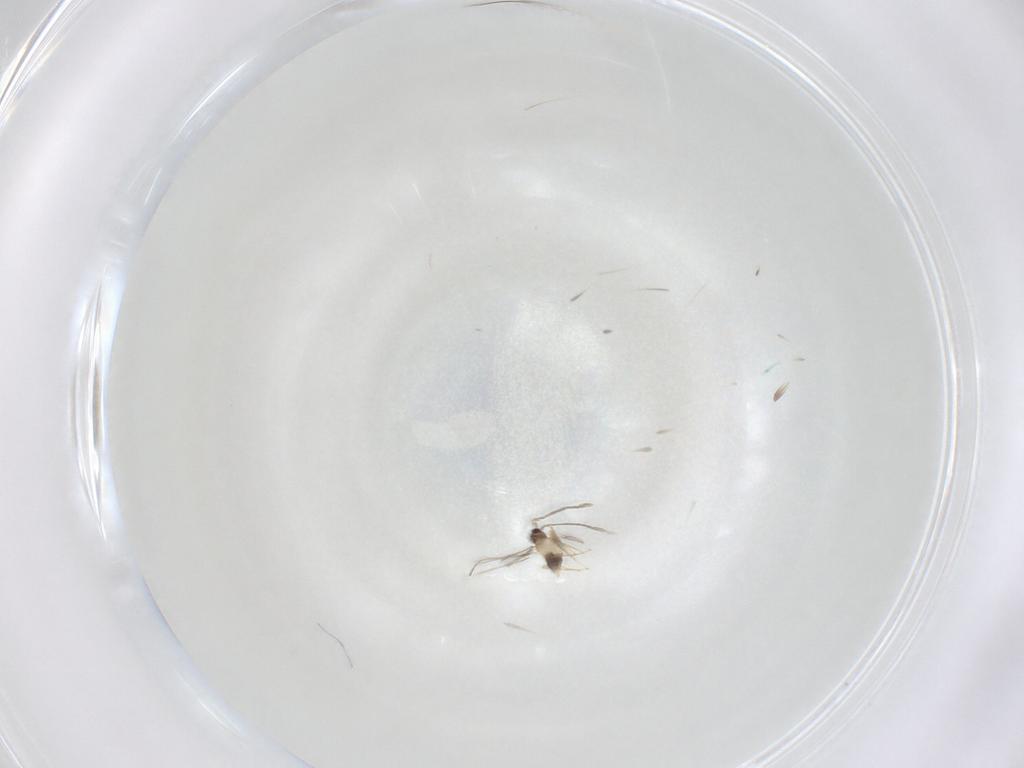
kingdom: Animalia
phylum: Arthropoda
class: Insecta
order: Hymenoptera
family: Mymaridae
